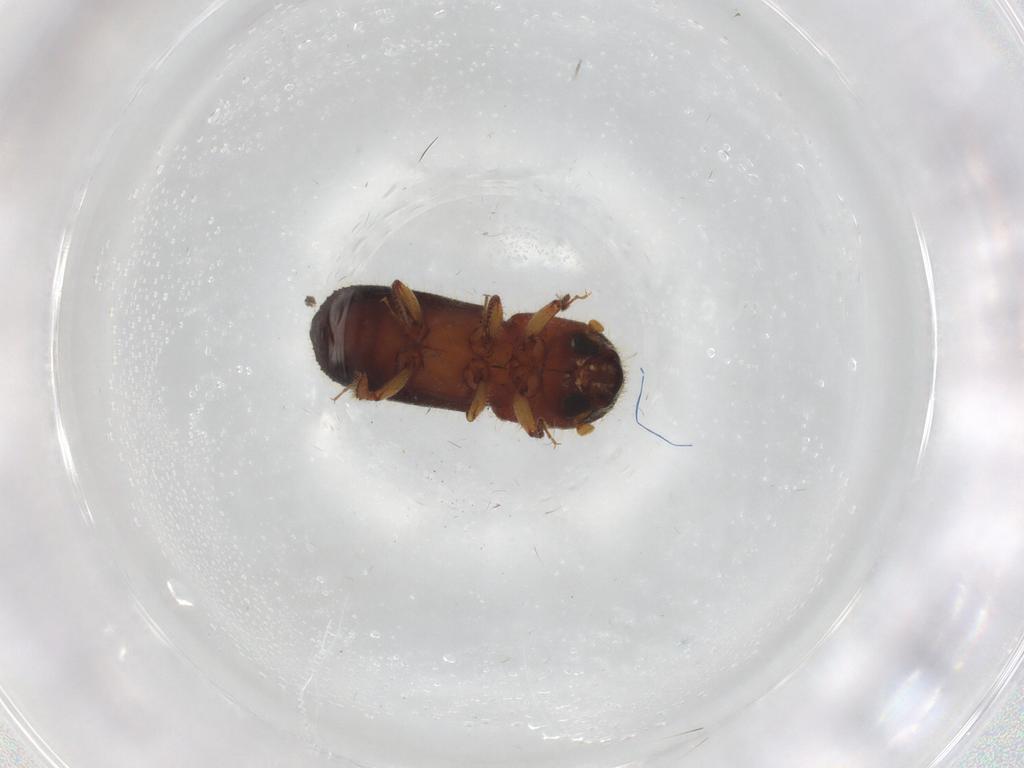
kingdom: Animalia
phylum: Arthropoda
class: Insecta
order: Coleoptera
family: Curculionidae
